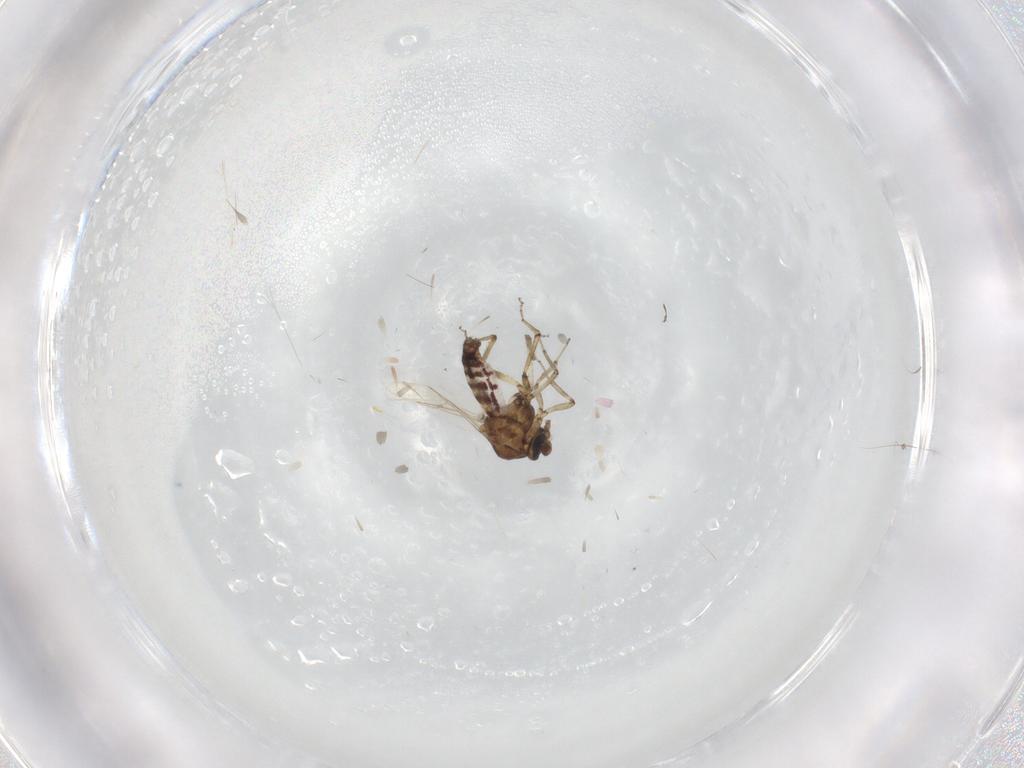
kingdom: Animalia
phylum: Arthropoda
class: Insecta
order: Diptera
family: Ceratopogonidae
